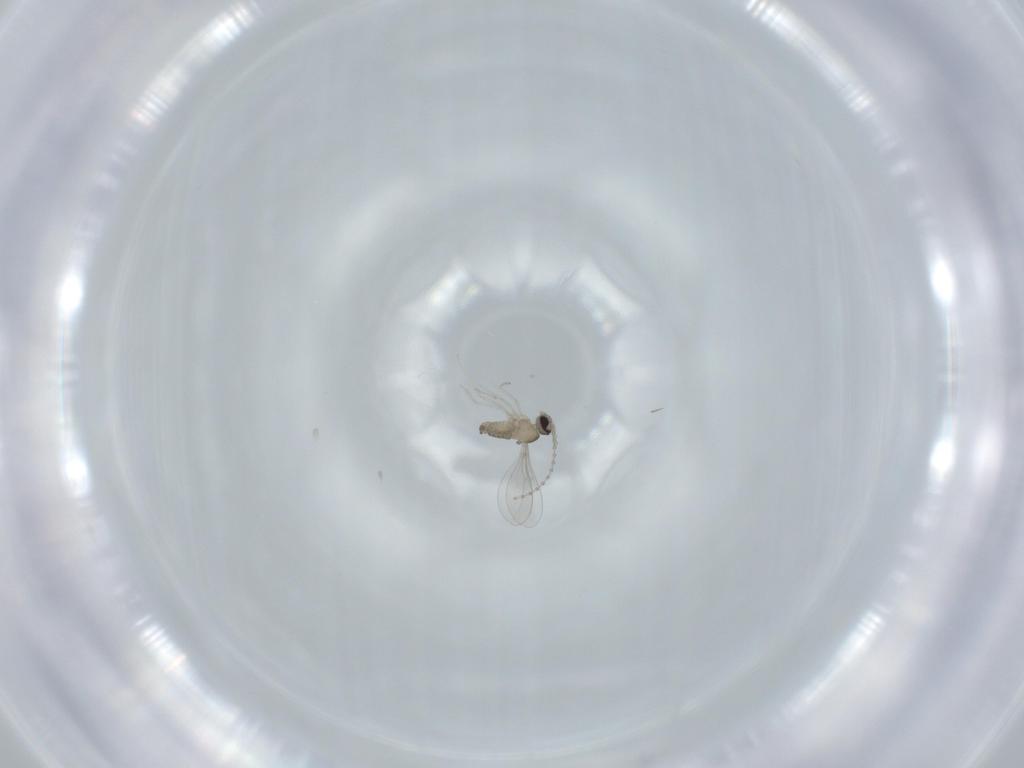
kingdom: Animalia
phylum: Arthropoda
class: Insecta
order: Diptera
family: Cecidomyiidae
